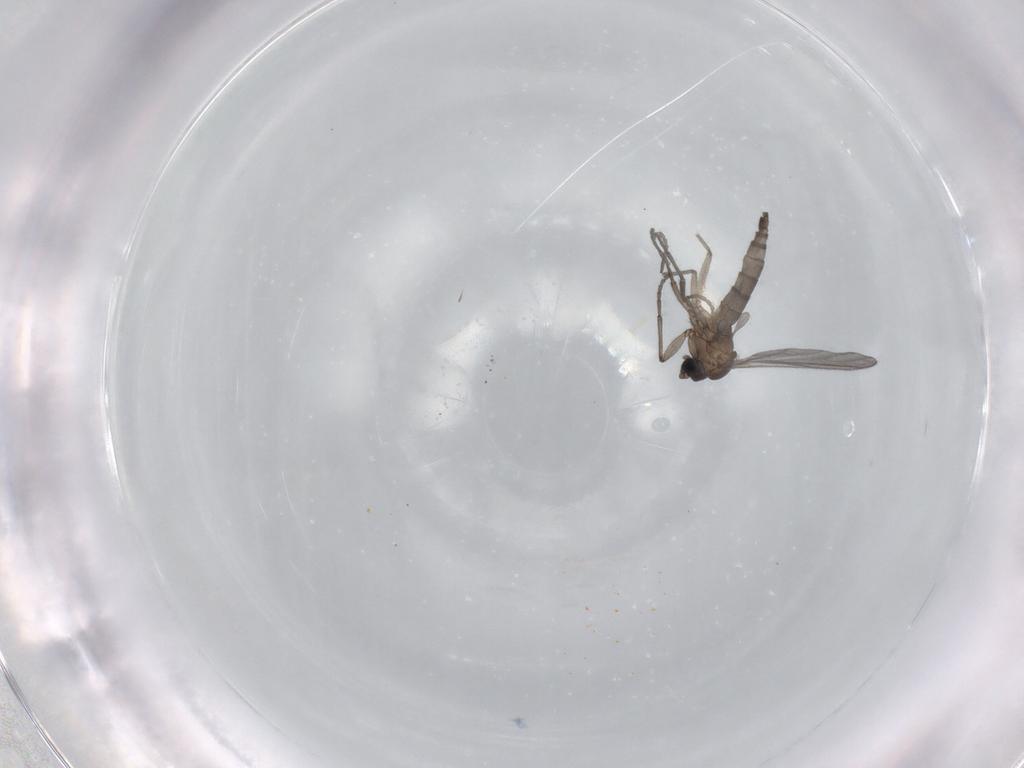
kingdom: Animalia
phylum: Arthropoda
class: Insecta
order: Diptera
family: Sciaridae
